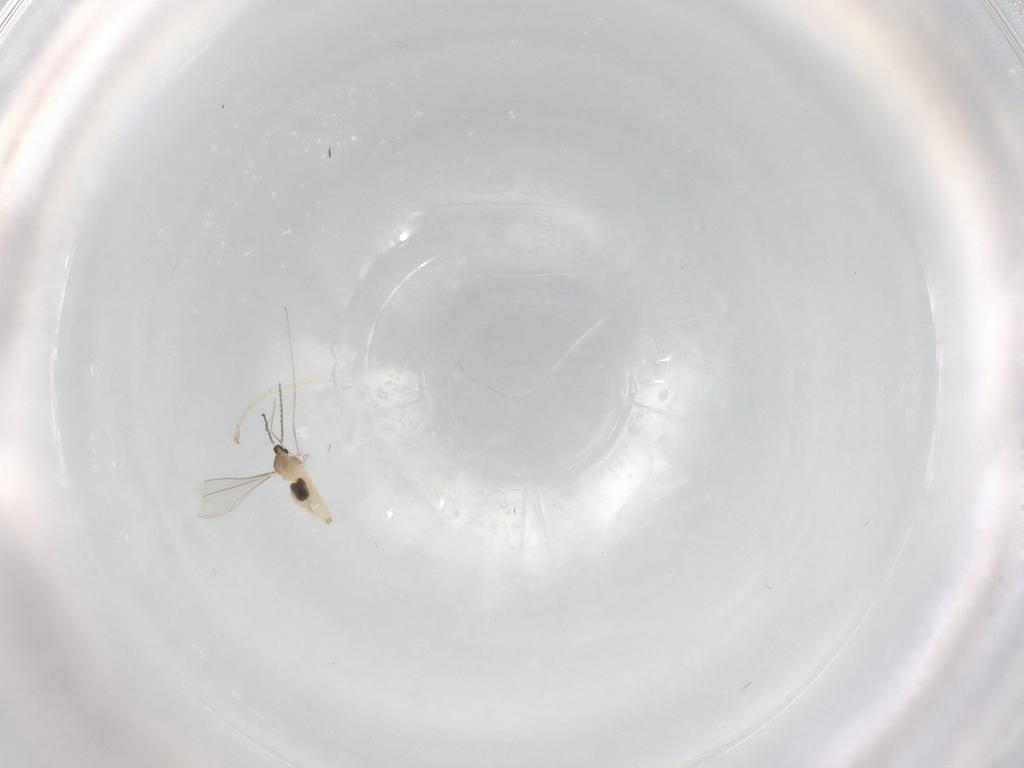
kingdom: Animalia
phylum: Arthropoda
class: Insecta
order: Diptera
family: Cecidomyiidae
